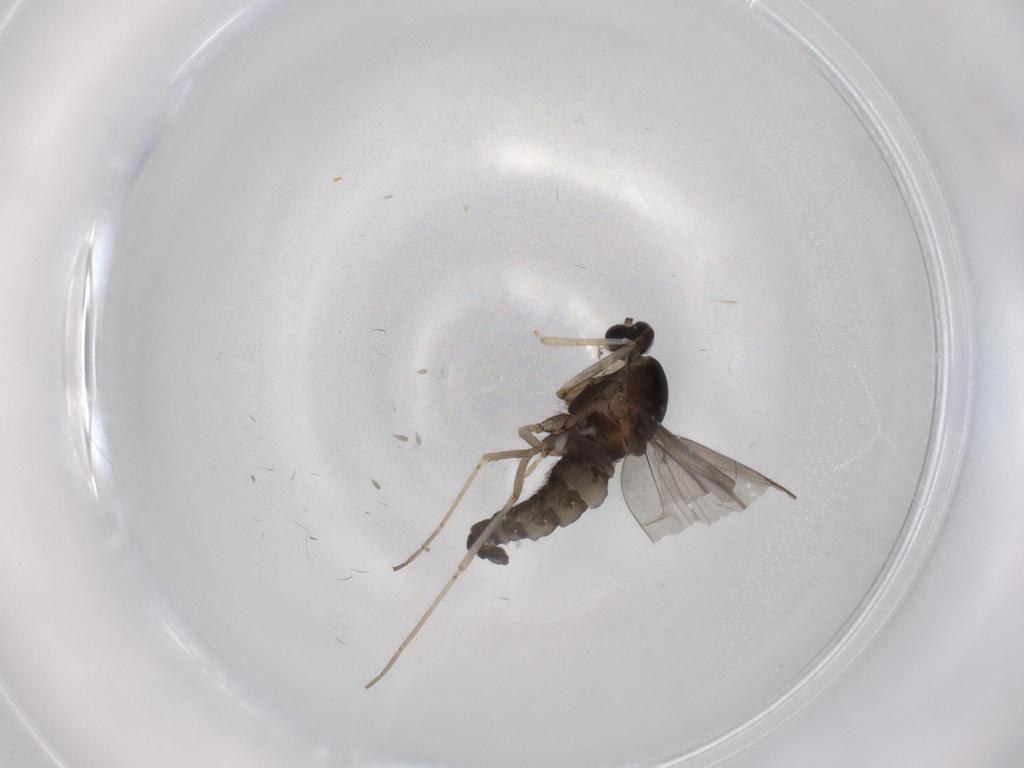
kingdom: Animalia
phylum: Arthropoda
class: Insecta
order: Diptera
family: Cecidomyiidae
